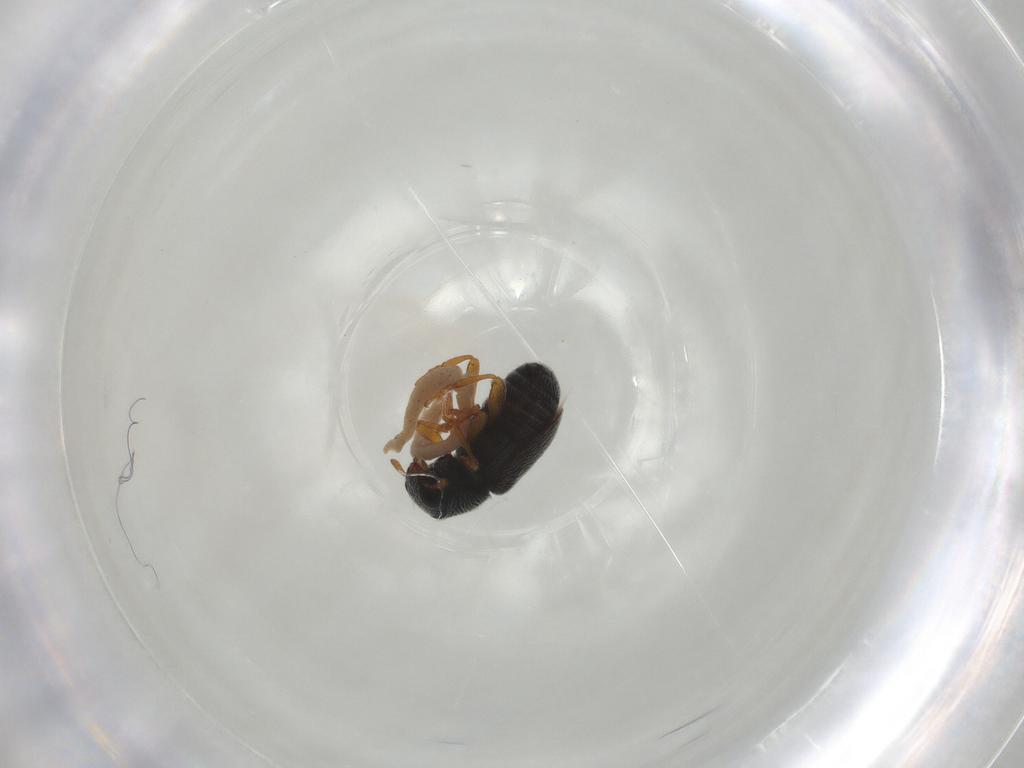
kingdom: Animalia
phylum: Arthropoda
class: Insecta
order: Coleoptera
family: Anthribidae
